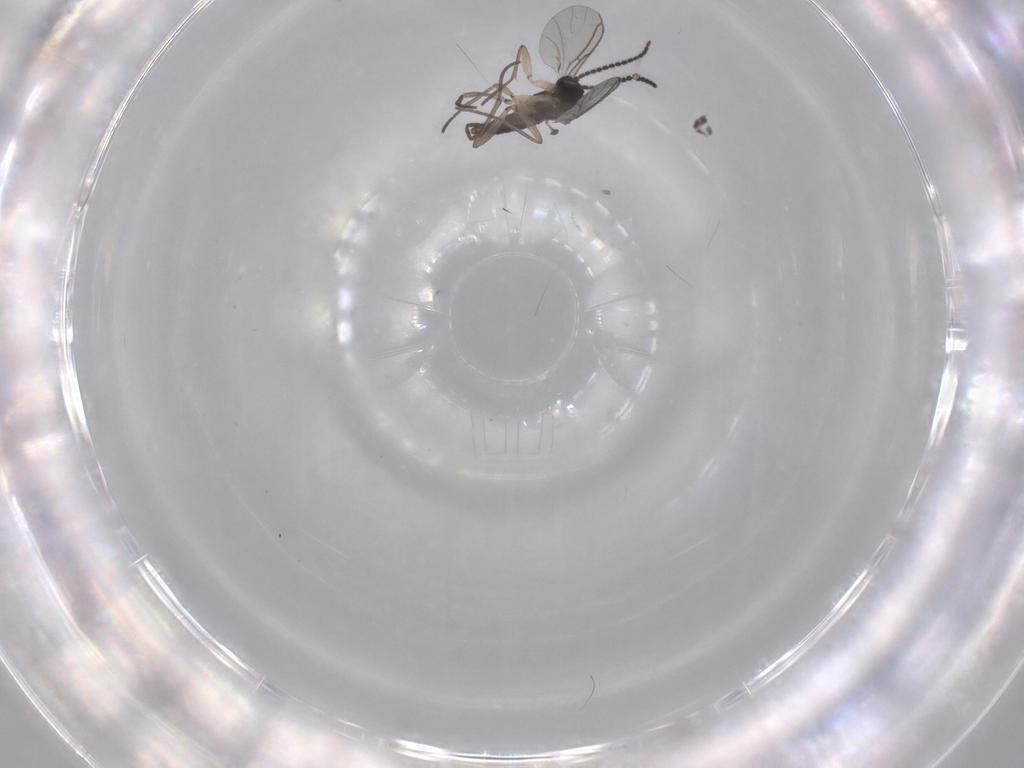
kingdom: Animalia
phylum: Arthropoda
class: Insecta
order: Diptera
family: Sciaridae
